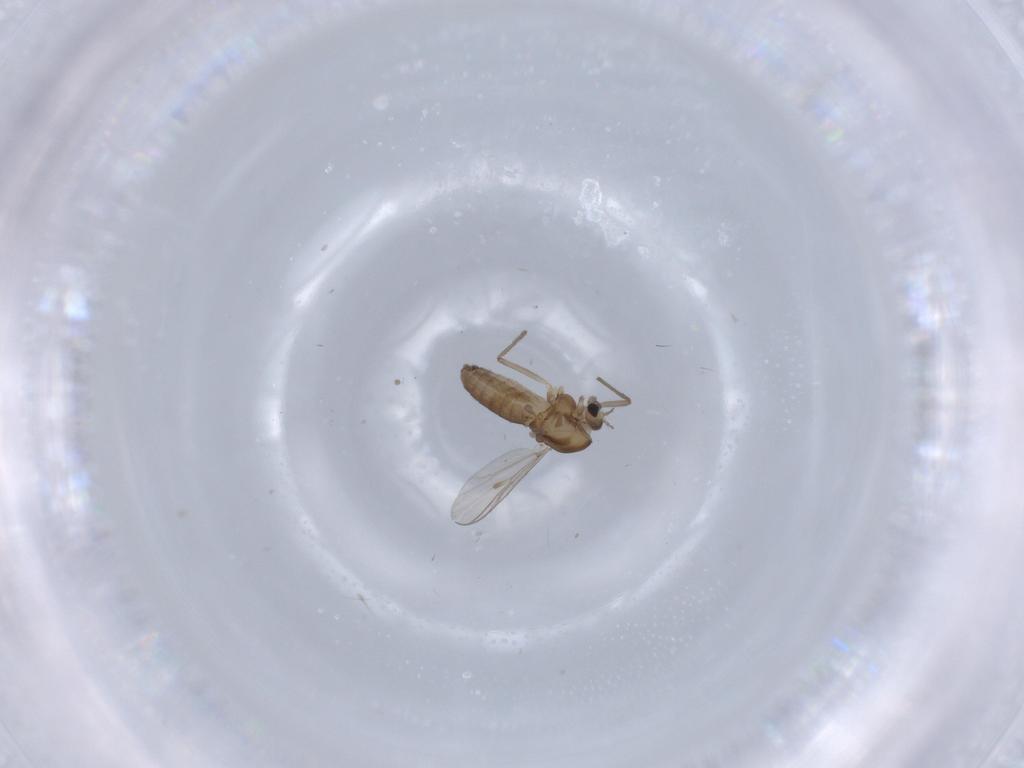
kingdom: Animalia
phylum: Arthropoda
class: Insecta
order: Diptera
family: Chironomidae
